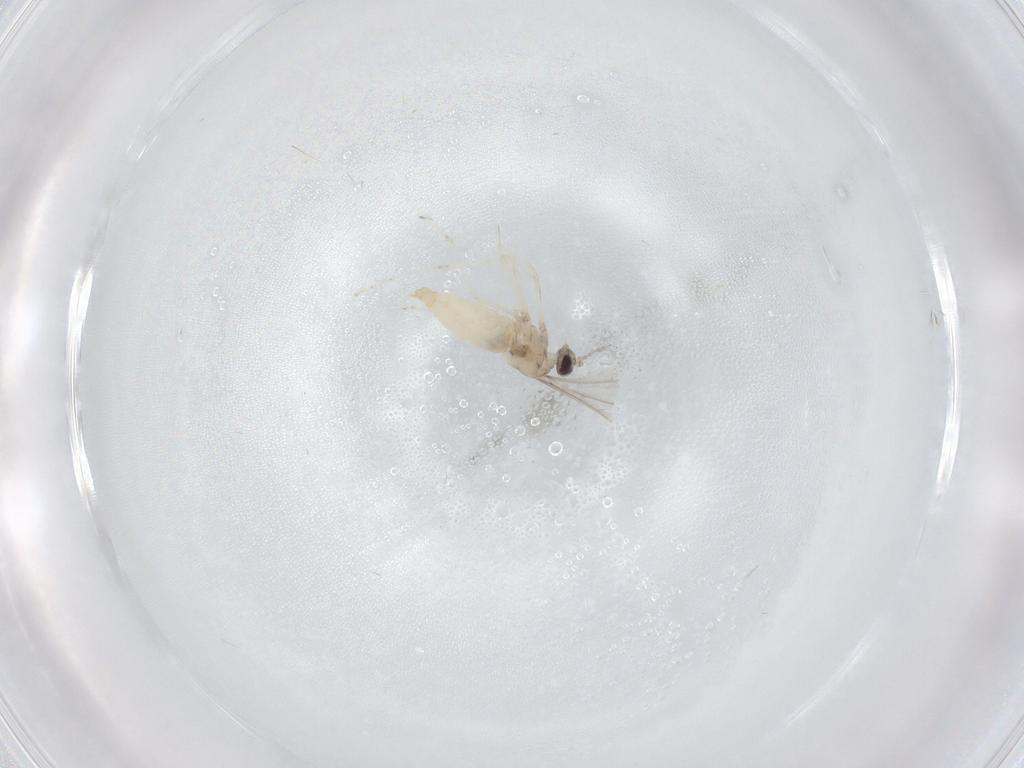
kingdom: Animalia
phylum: Arthropoda
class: Insecta
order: Diptera
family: Cecidomyiidae
